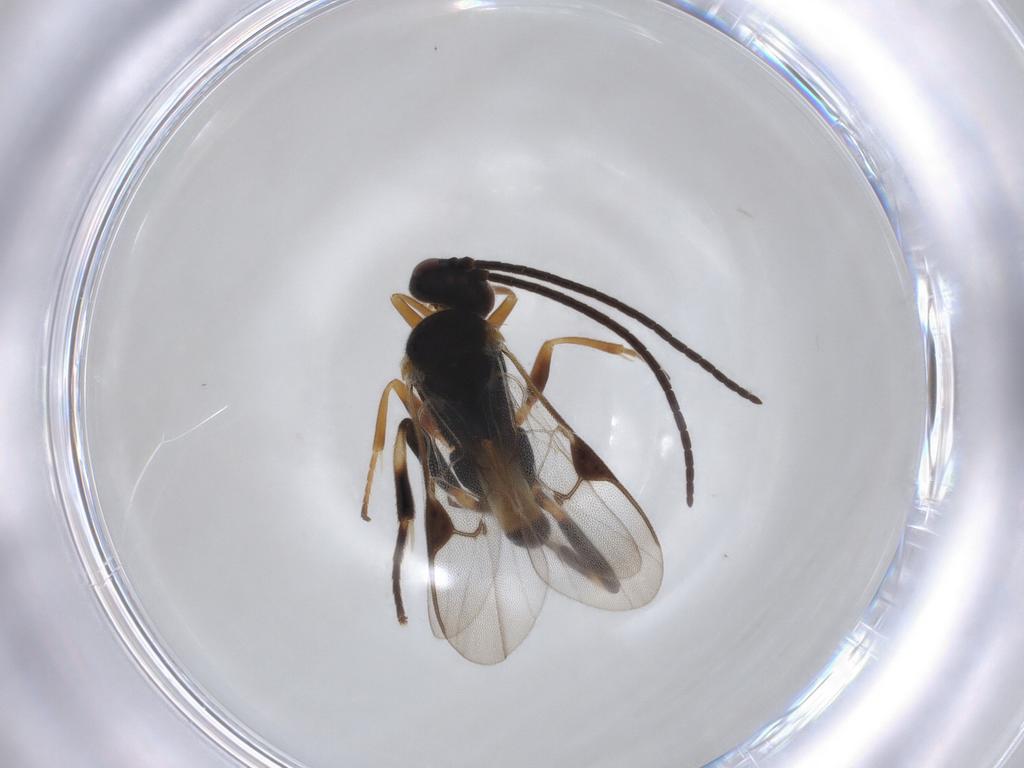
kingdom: Animalia
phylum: Arthropoda
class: Insecta
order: Hymenoptera
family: Braconidae
